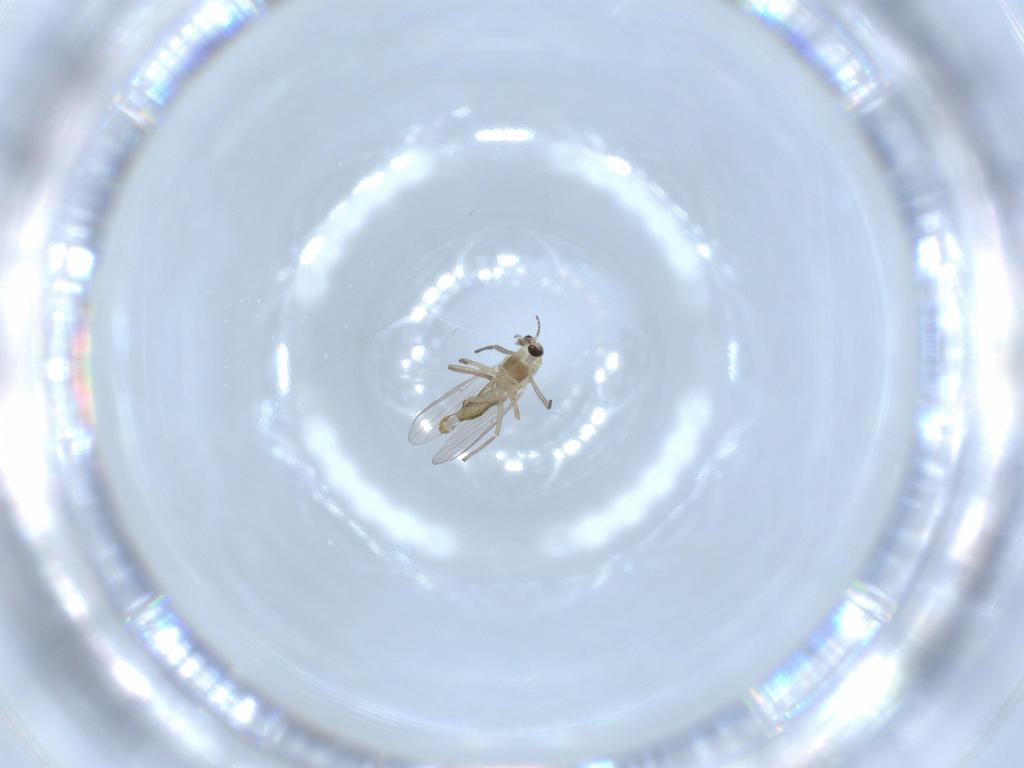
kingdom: Animalia
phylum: Arthropoda
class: Insecta
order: Diptera
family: Chironomidae
